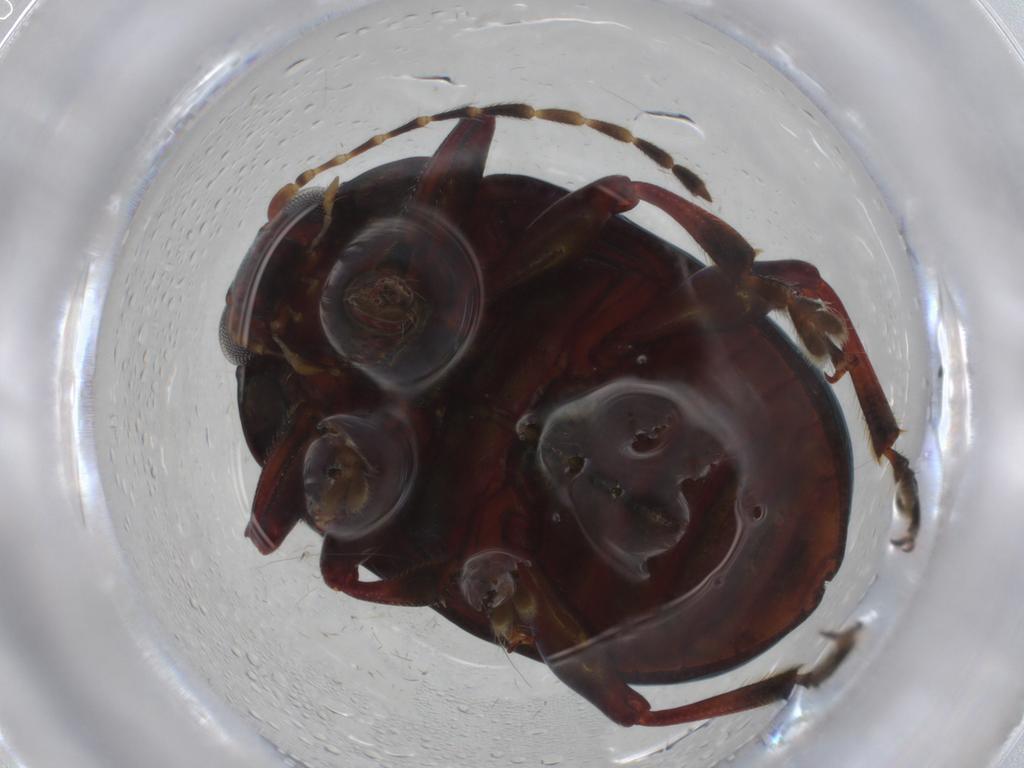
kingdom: Animalia
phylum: Arthropoda
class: Insecta
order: Coleoptera
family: Chrysomelidae
